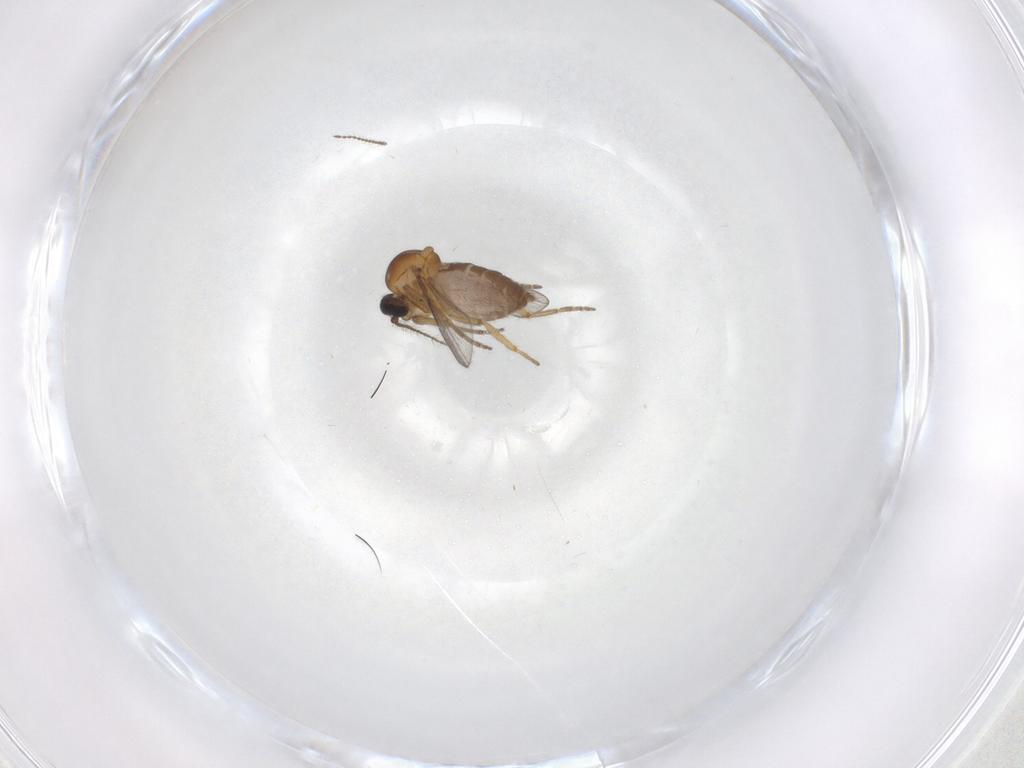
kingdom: Animalia
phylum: Arthropoda
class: Insecta
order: Diptera
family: Ceratopogonidae
